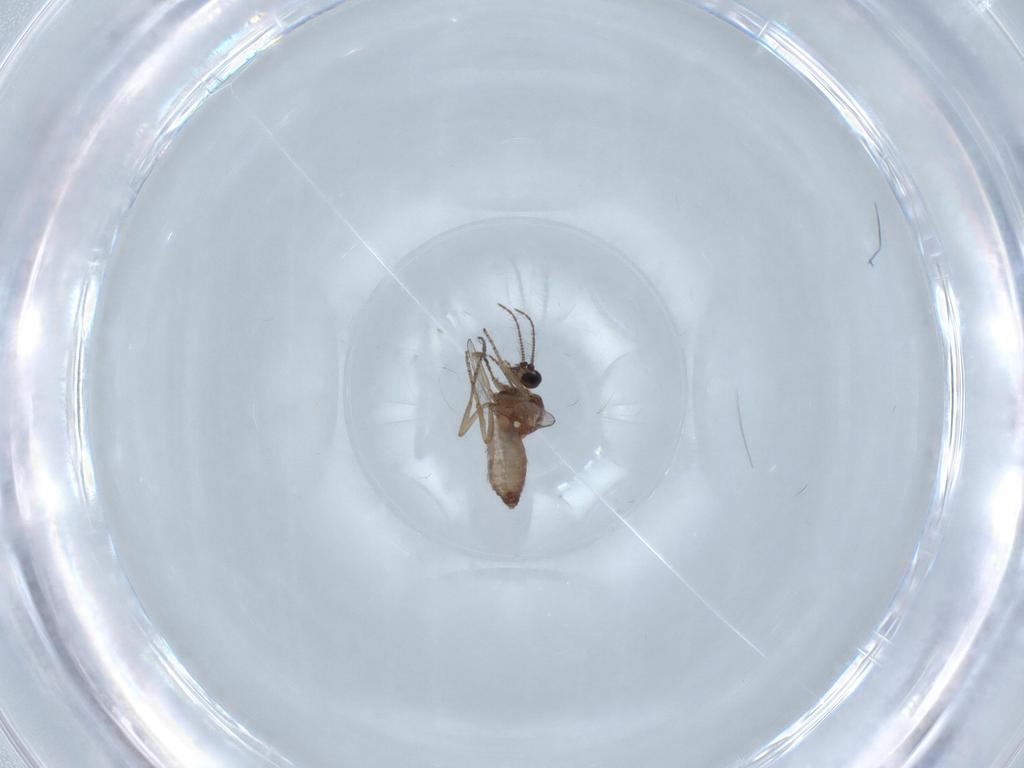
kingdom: Animalia
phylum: Arthropoda
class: Insecta
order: Diptera
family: Ceratopogonidae
